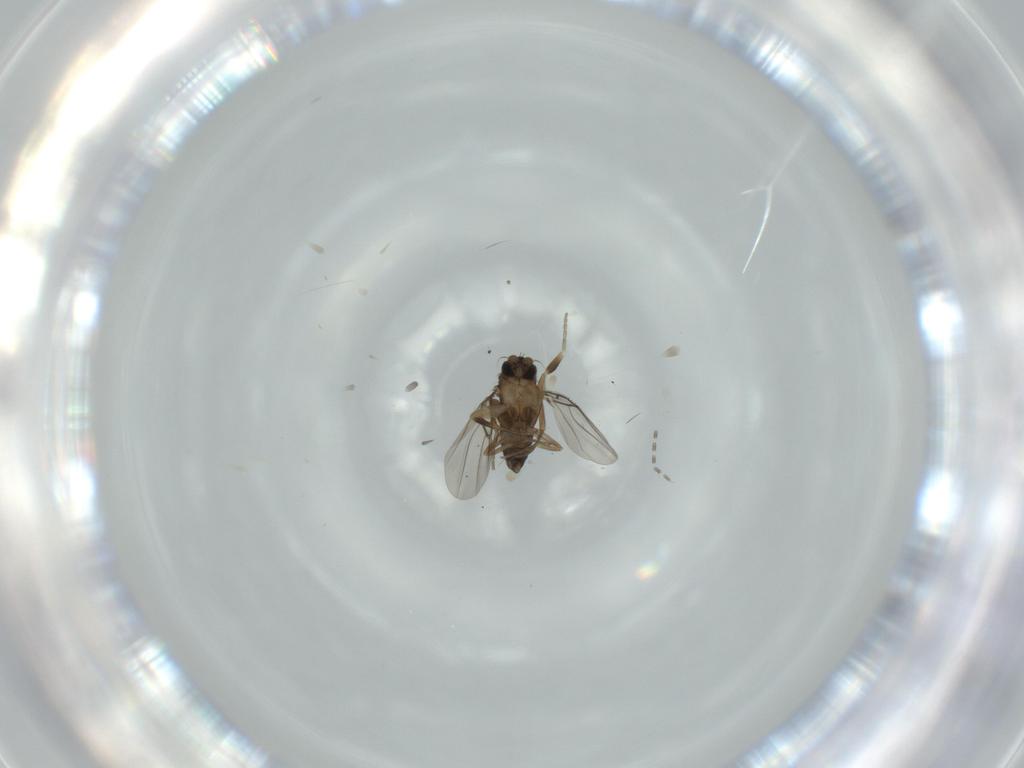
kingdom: Animalia
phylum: Arthropoda
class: Insecta
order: Diptera
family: Phoridae
